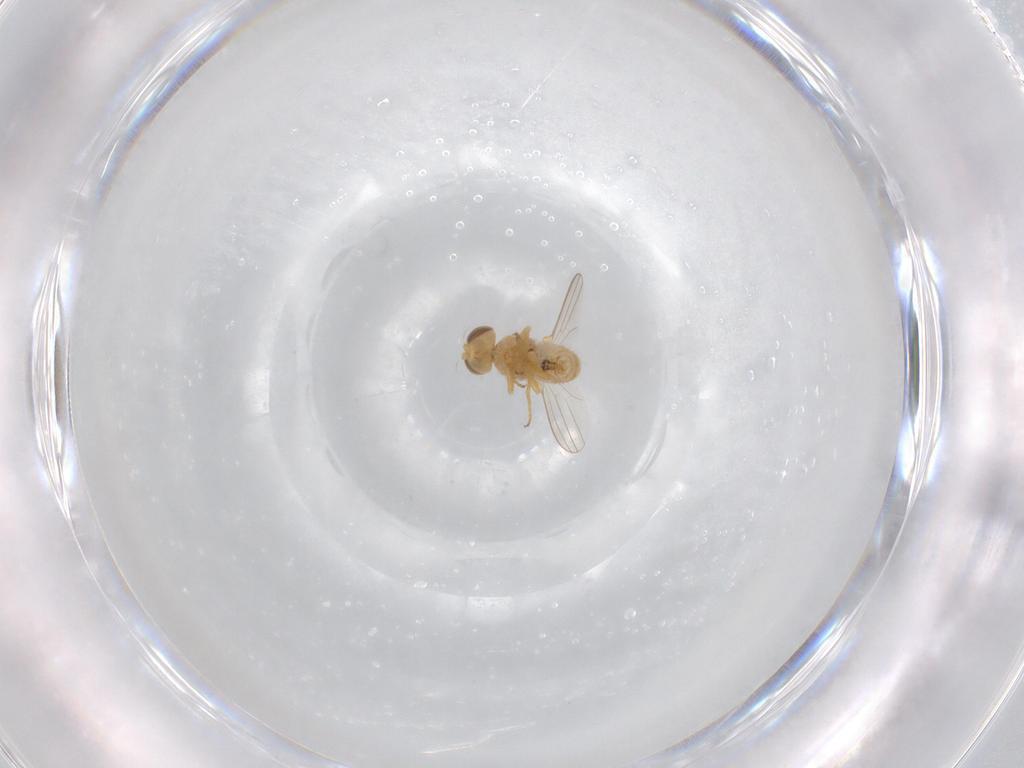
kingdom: Animalia
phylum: Arthropoda
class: Insecta
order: Diptera
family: Chyromyidae
